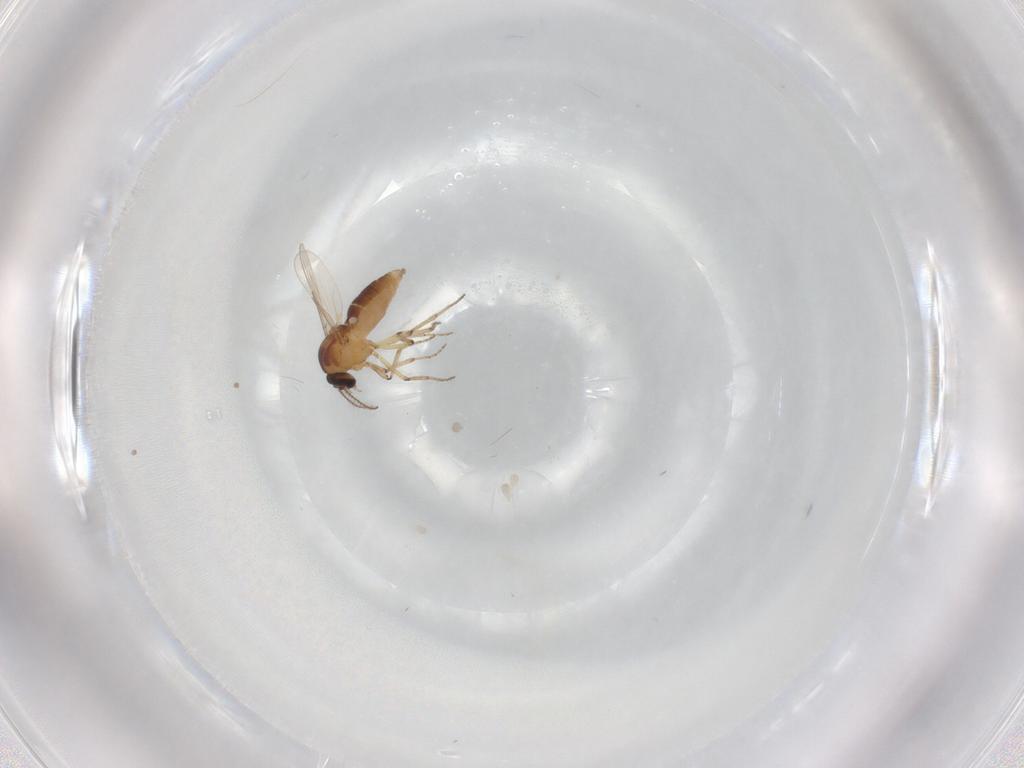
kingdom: Animalia
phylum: Arthropoda
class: Insecta
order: Diptera
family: Sphaeroceridae
